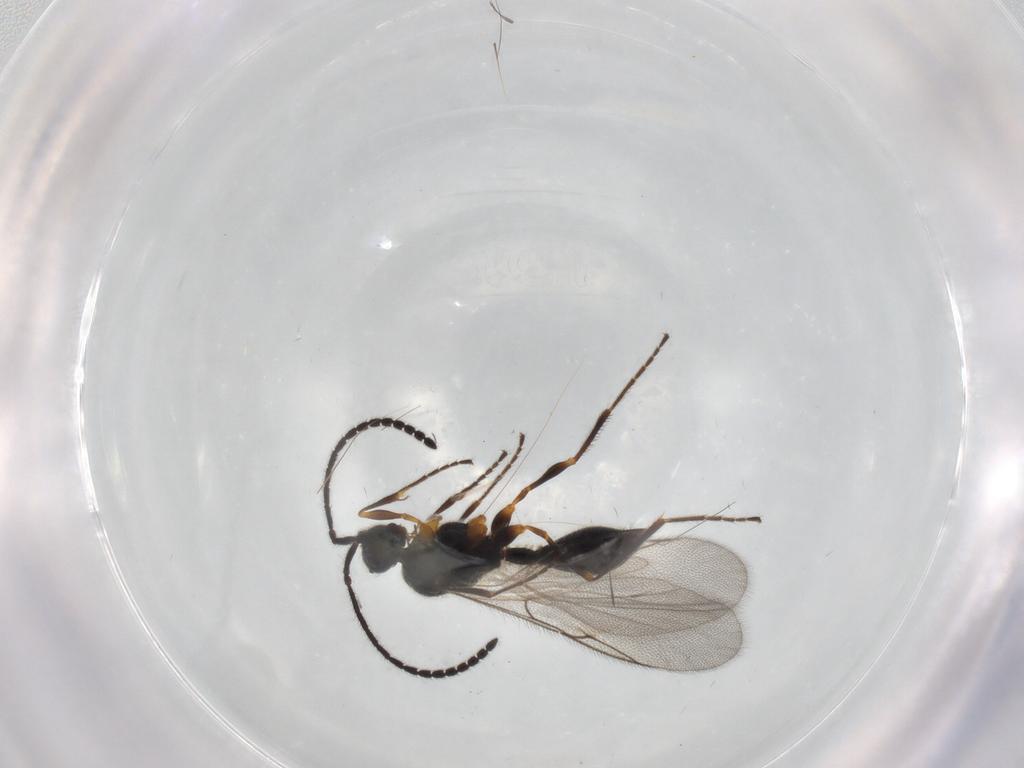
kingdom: Animalia
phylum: Arthropoda
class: Insecta
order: Hymenoptera
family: Diapriidae
